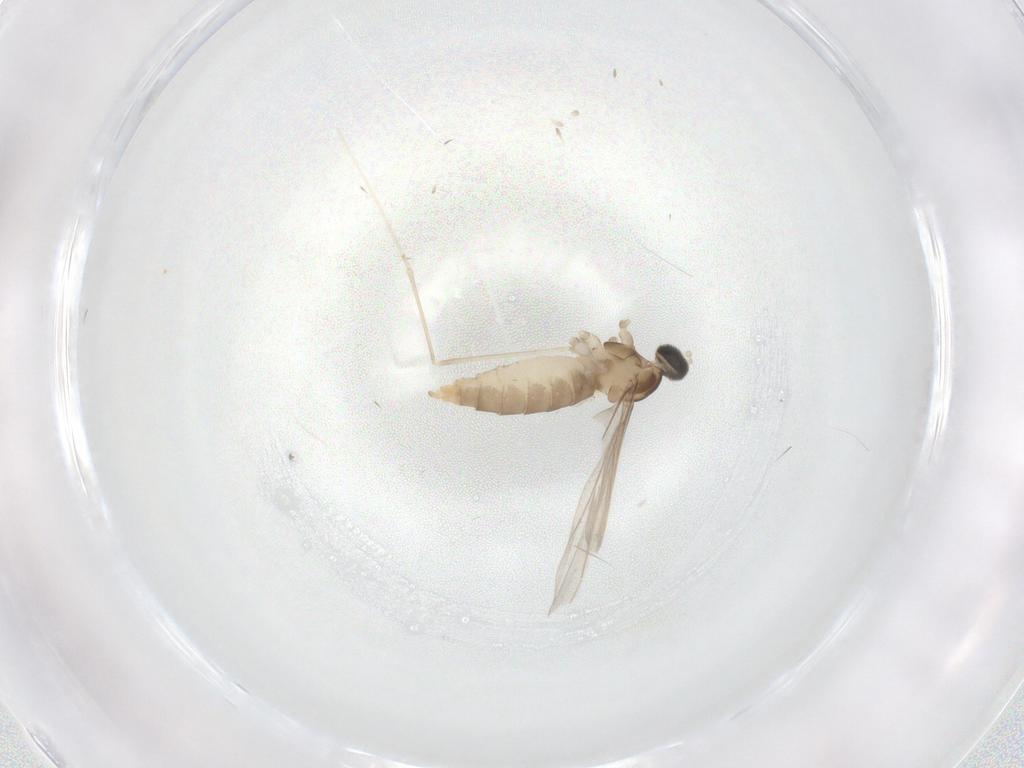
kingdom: Animalia
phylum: Arthropoda
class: Insecta
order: Diptera
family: Cecidomyiidae
